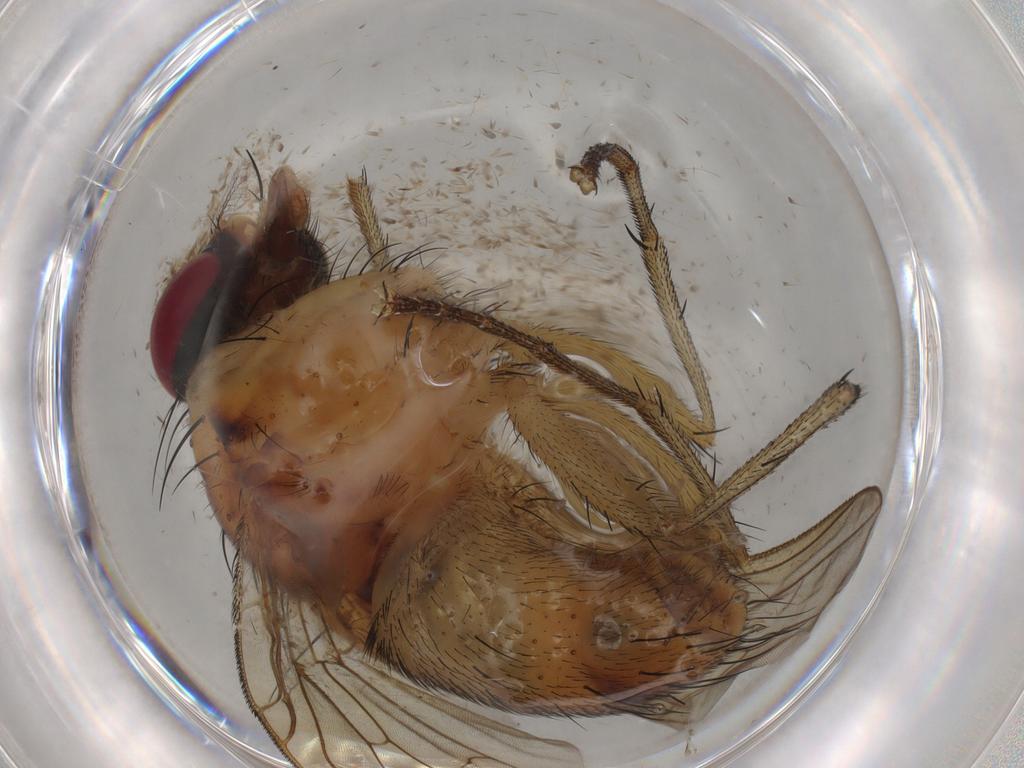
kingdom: Animalia
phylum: Arthropoda
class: Insecta
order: Diptera
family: Muscidae
